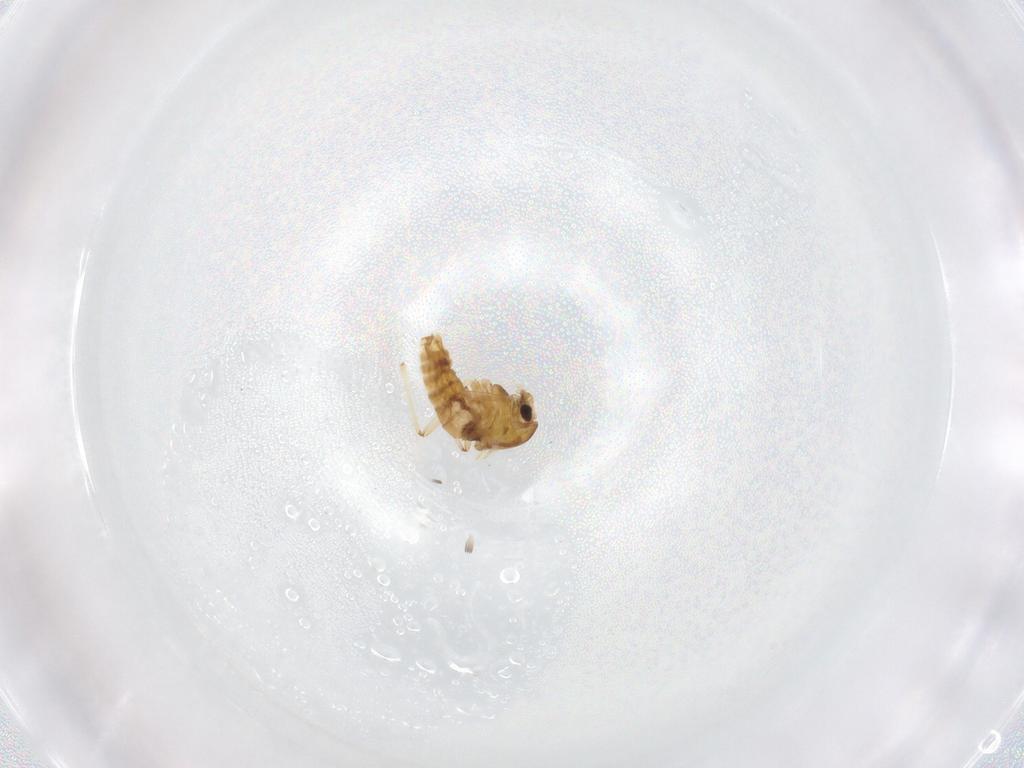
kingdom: Animalia
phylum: Arthropoda
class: Insecta
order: Diptera
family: Chironomidae
